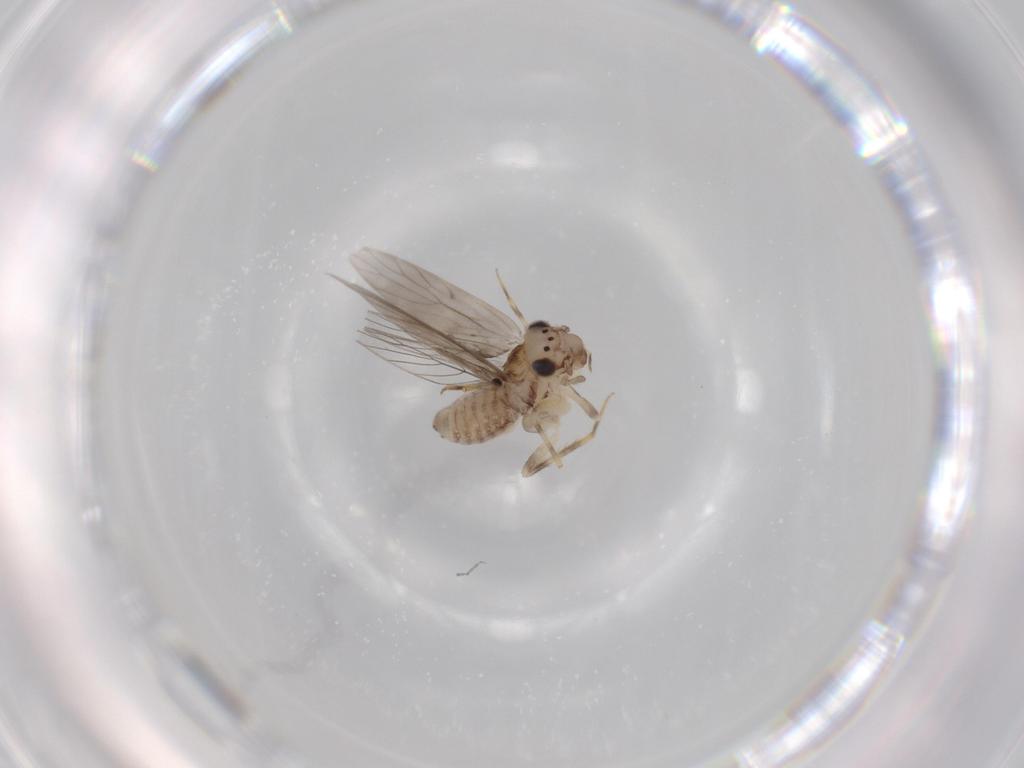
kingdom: Animalia
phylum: Arthropoda
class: Insecta
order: Psocodea
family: Lepidopsocidae
